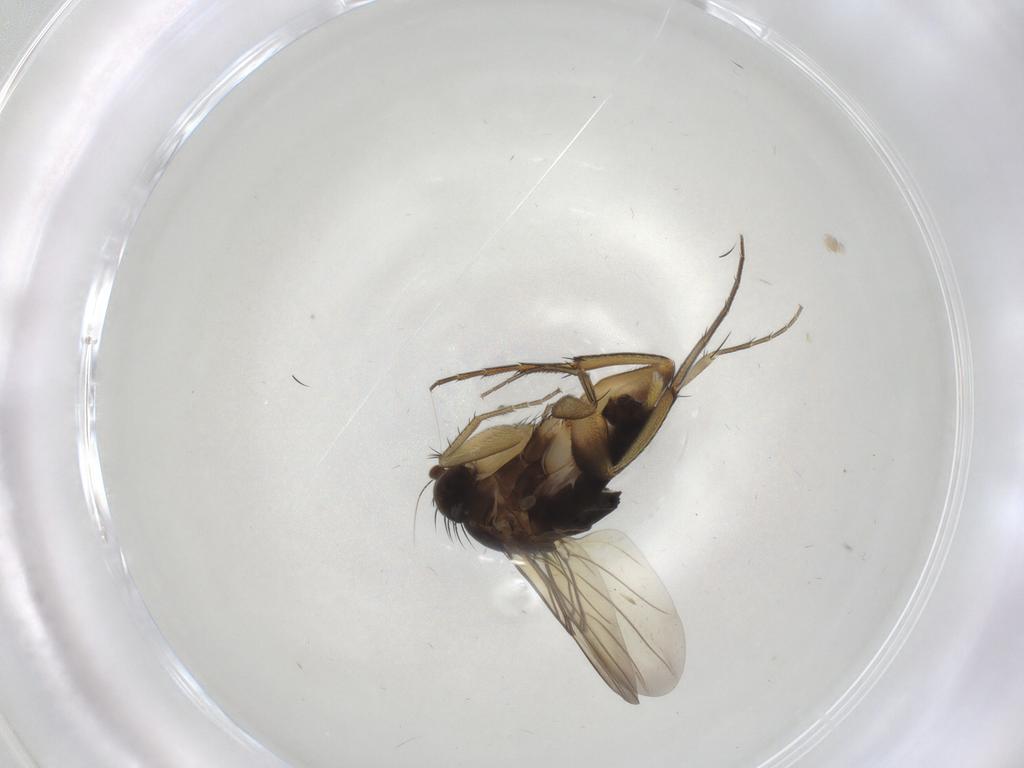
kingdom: Animalia
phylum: Arthropoda
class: Insecta
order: Diptera
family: Phoridae
